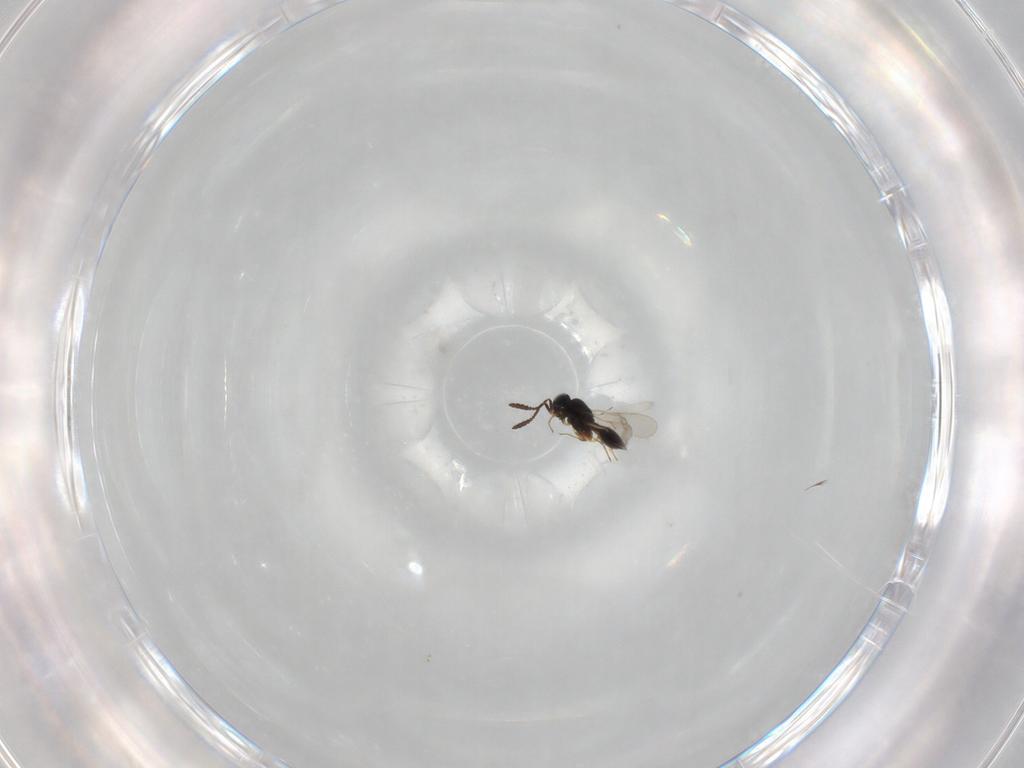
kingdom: Animalia
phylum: Arthropoda
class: Insecta
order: Hymenoptera
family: Scelionidae
